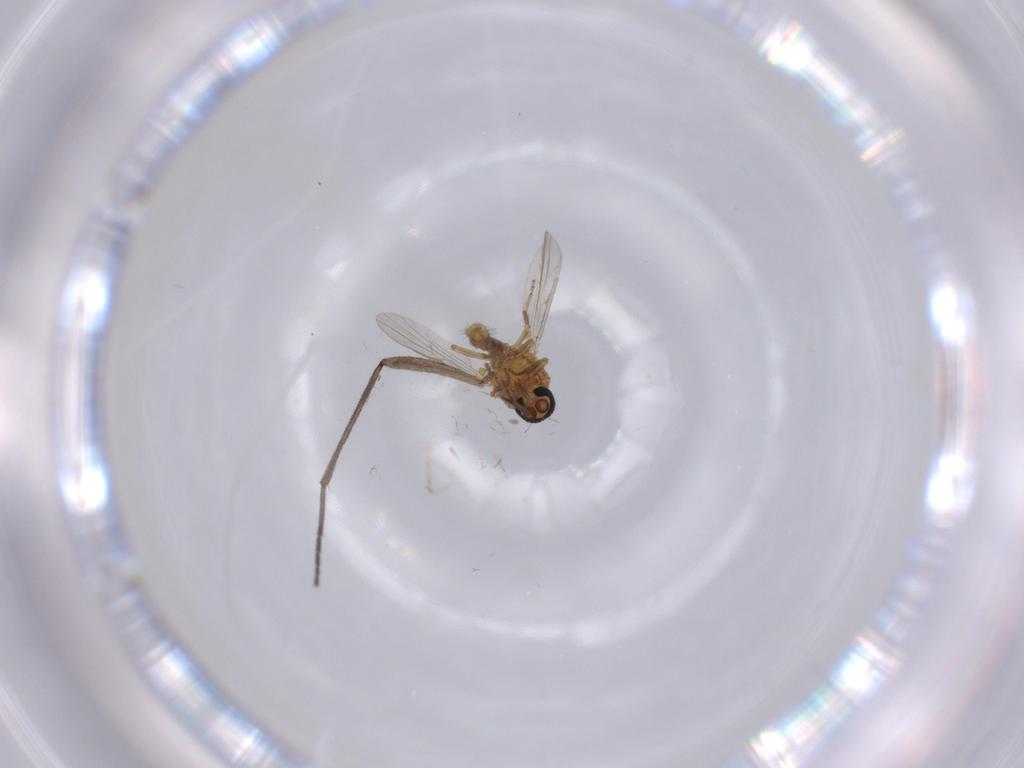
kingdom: Animalia
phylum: Arthropoda
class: Insecta
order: Diptera
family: Ceratopogonidae
